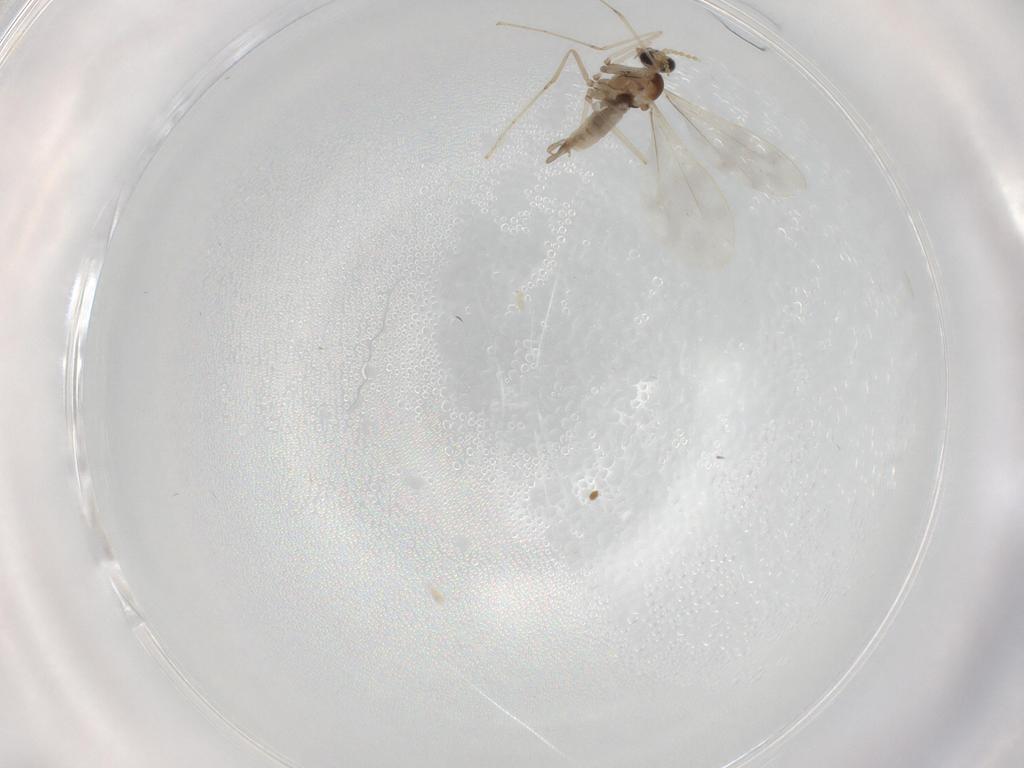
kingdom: Animalia
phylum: Arthropoda
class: Insecta
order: Diptera
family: Cecidomyiidae
